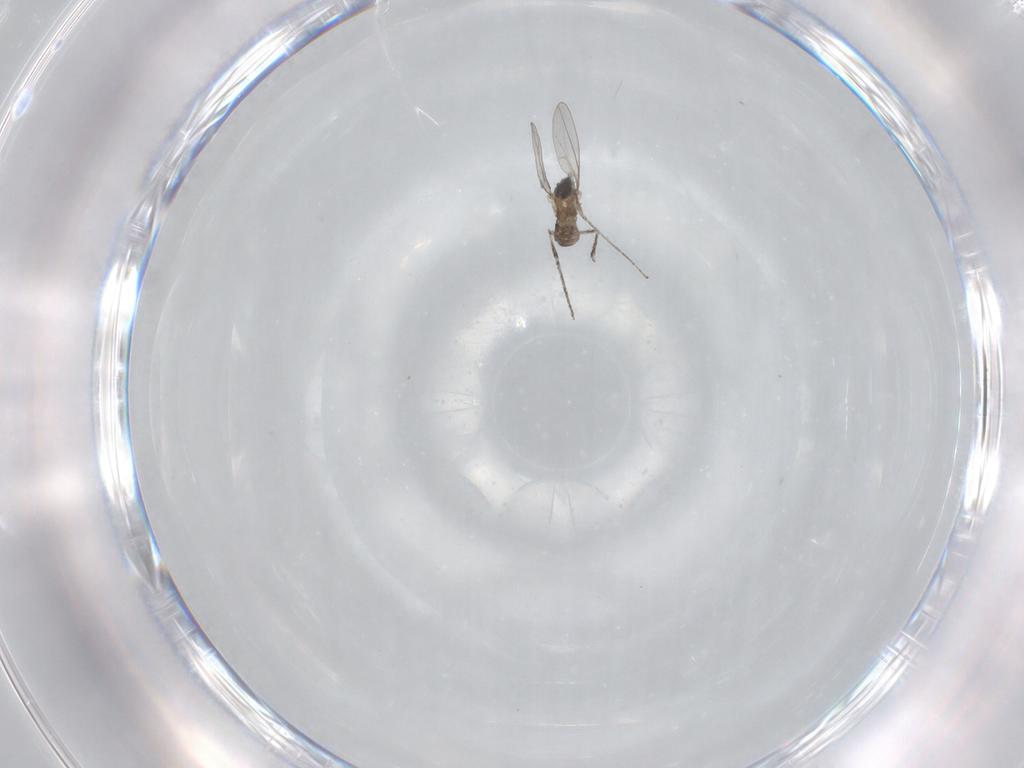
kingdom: Animalia
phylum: Arthropoda
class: Insecta
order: Diptera
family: Cecidomyiidae
